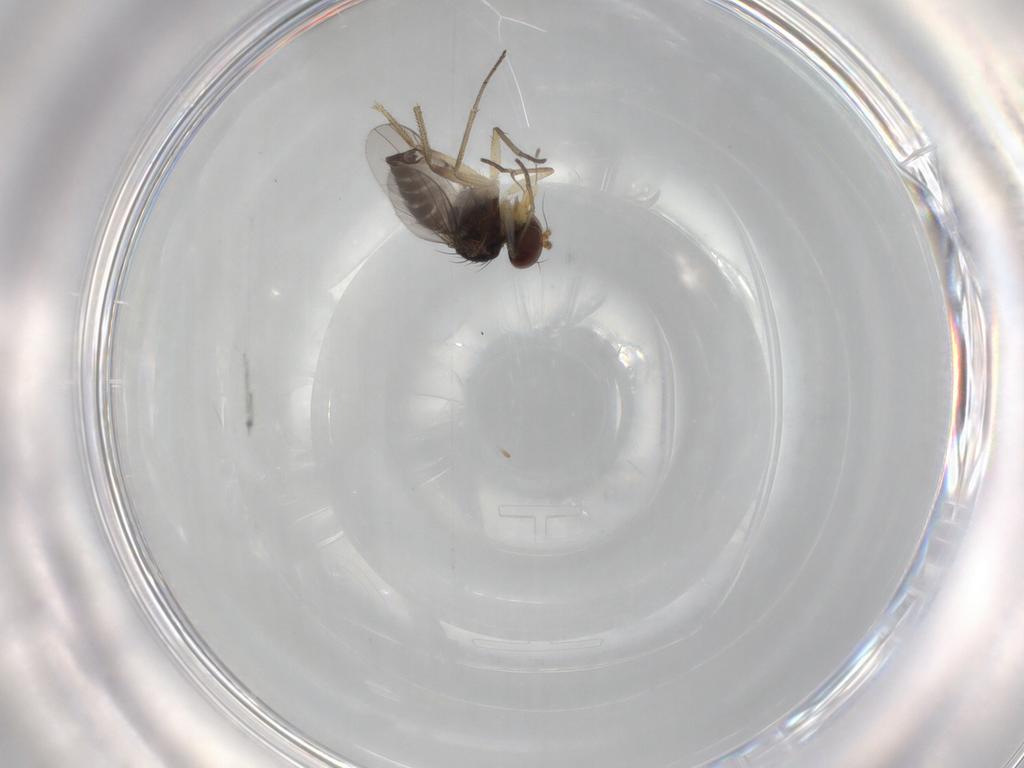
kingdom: Animalia
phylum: Arthropoda
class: Insecta
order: Diptera
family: Dolichopodidae
